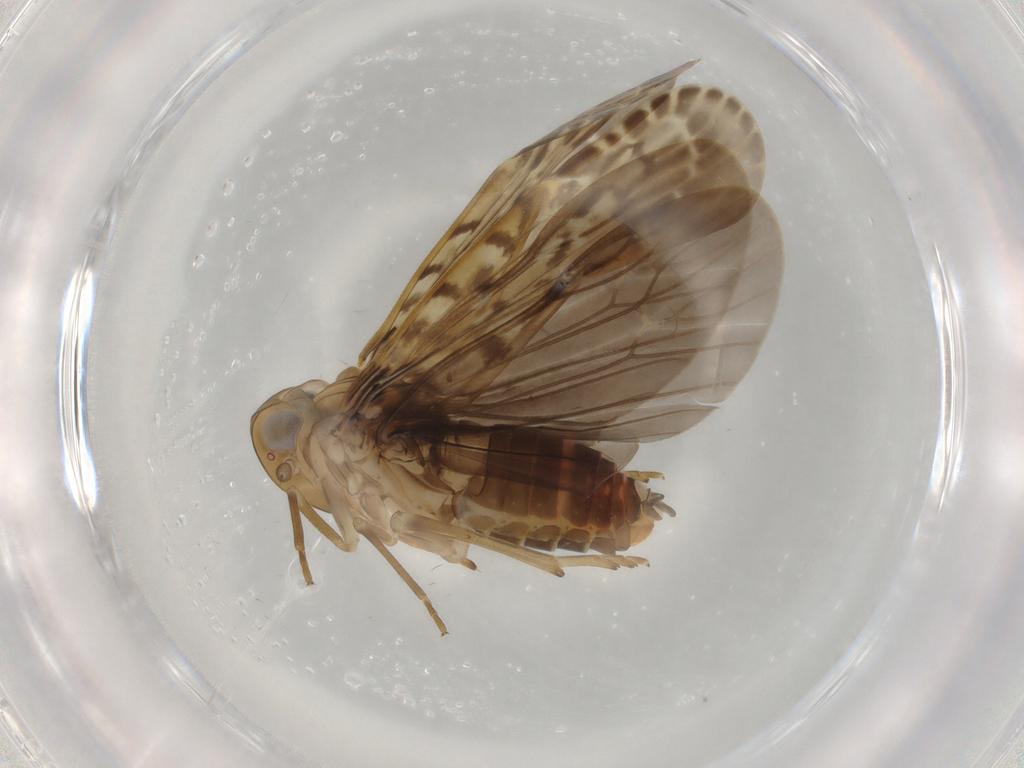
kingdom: Animalia
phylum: Arthropoda
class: Insecta
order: Hemiptera
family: Achilidae
